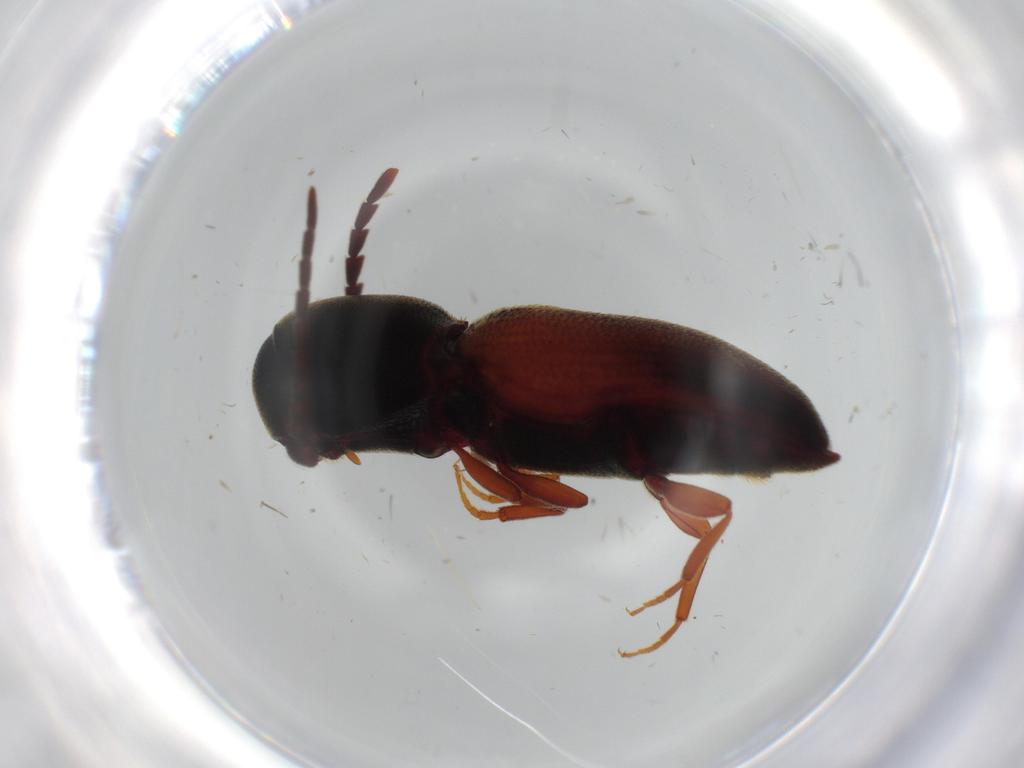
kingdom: Animalia
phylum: Arthropoda
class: Insecta
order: Coleoptera
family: Eucnemidae
